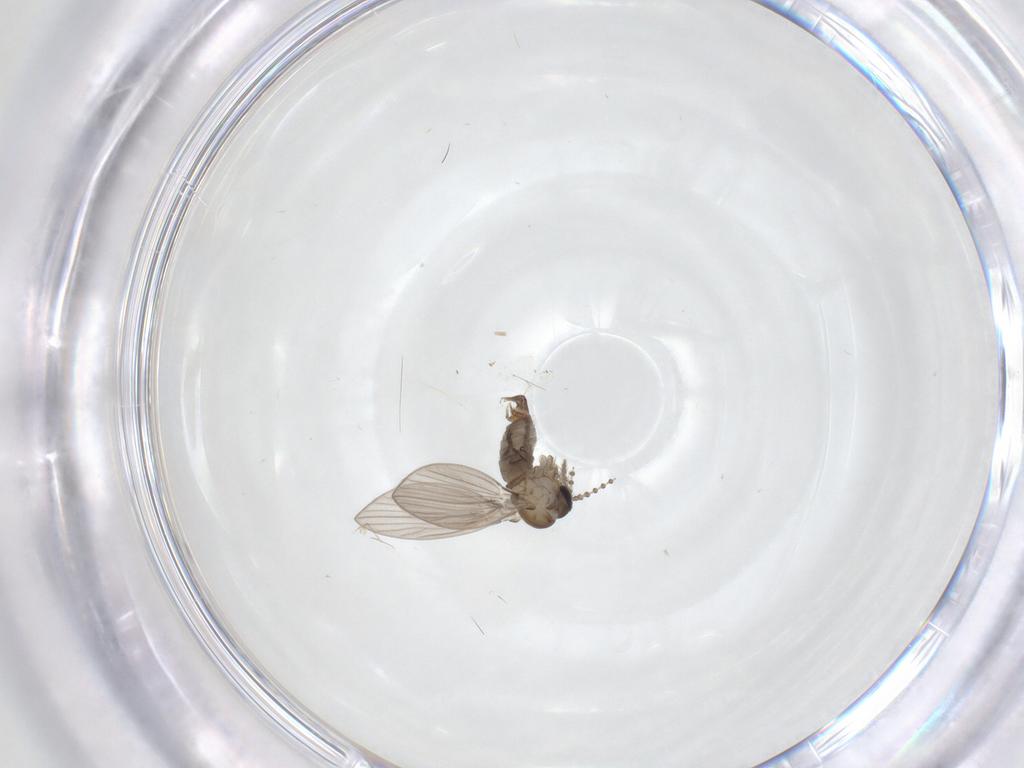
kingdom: Animalia
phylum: Arthropoda
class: Insecta
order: Diptera
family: Psychodidae
